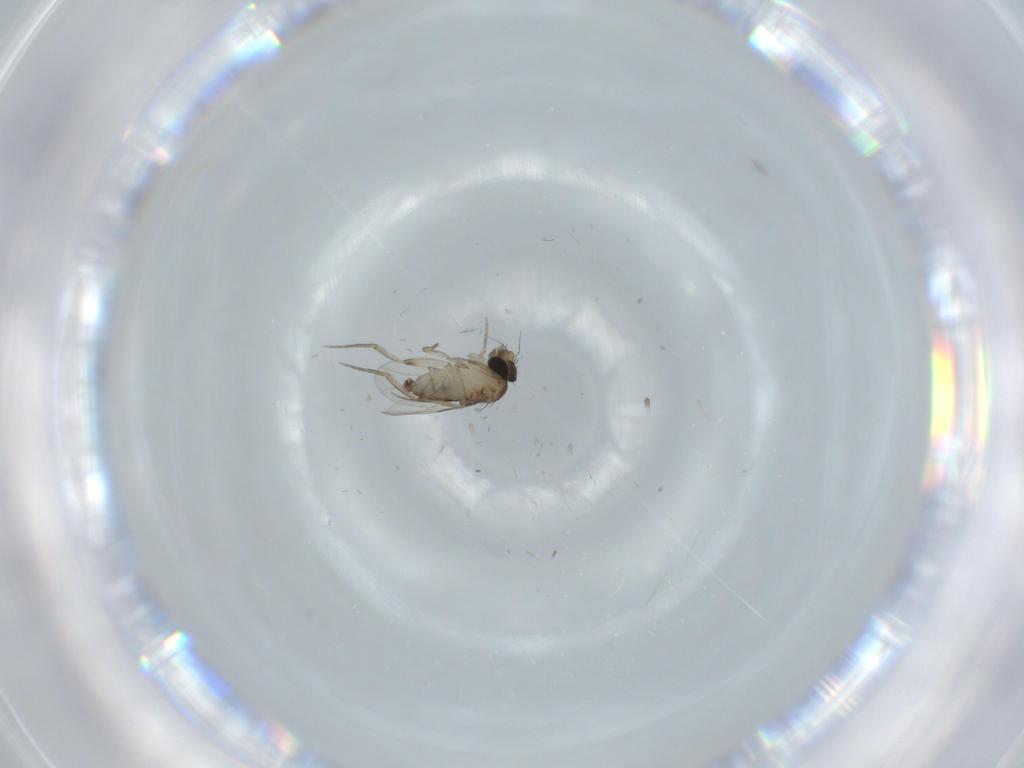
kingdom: Animalia
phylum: Arthropoda
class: Insecta
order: Diptera
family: Phoridae
